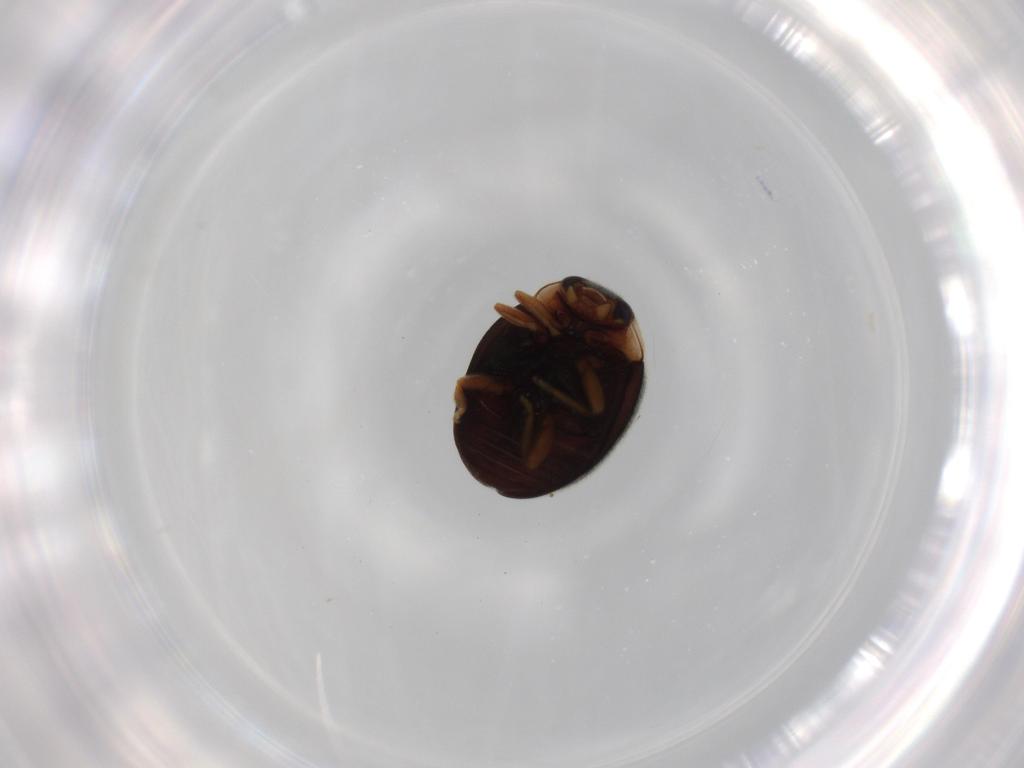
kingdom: Animalia
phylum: Arthropoda
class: Insecta
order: Coleoptera
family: Coccinellidae
